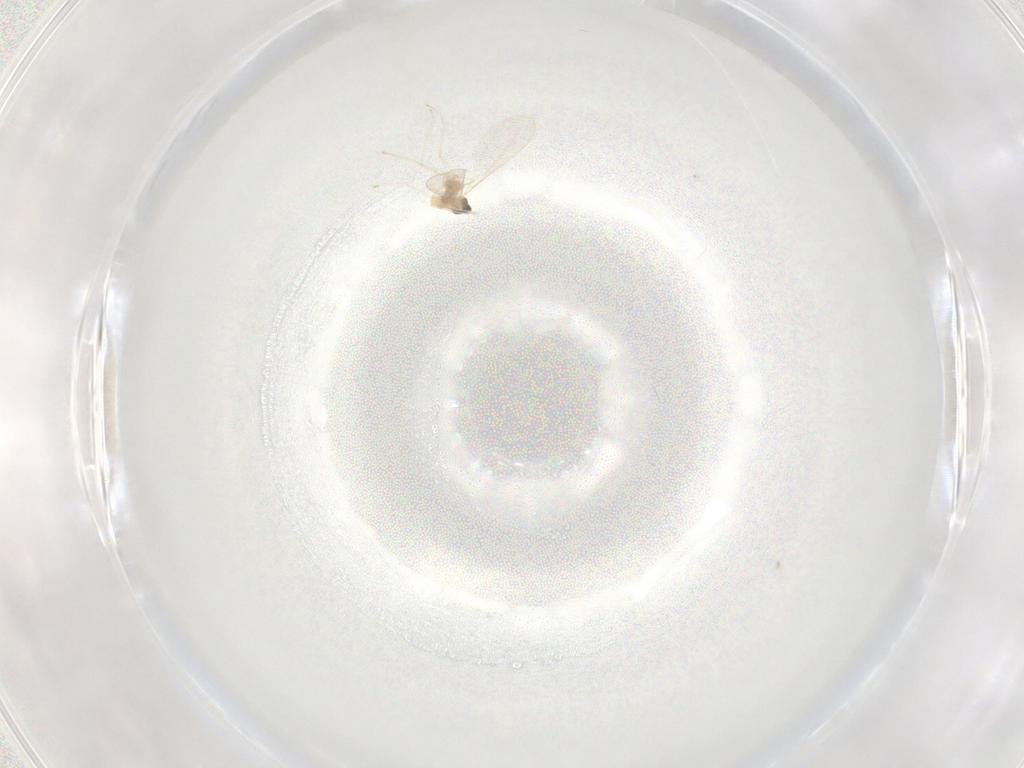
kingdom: Animalia
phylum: Arthropoda
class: Insecta
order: Diptera
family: Cecidomyiidae
